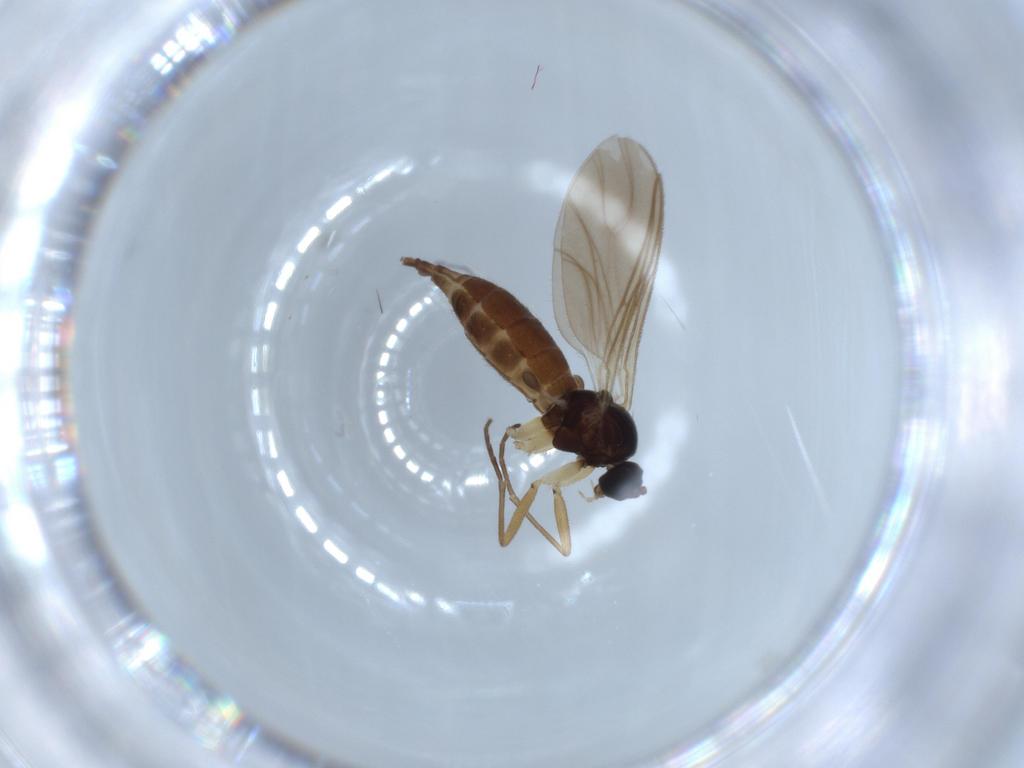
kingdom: Animalia
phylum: Arthropoda
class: Insecta
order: Diptera
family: Sciaridae
